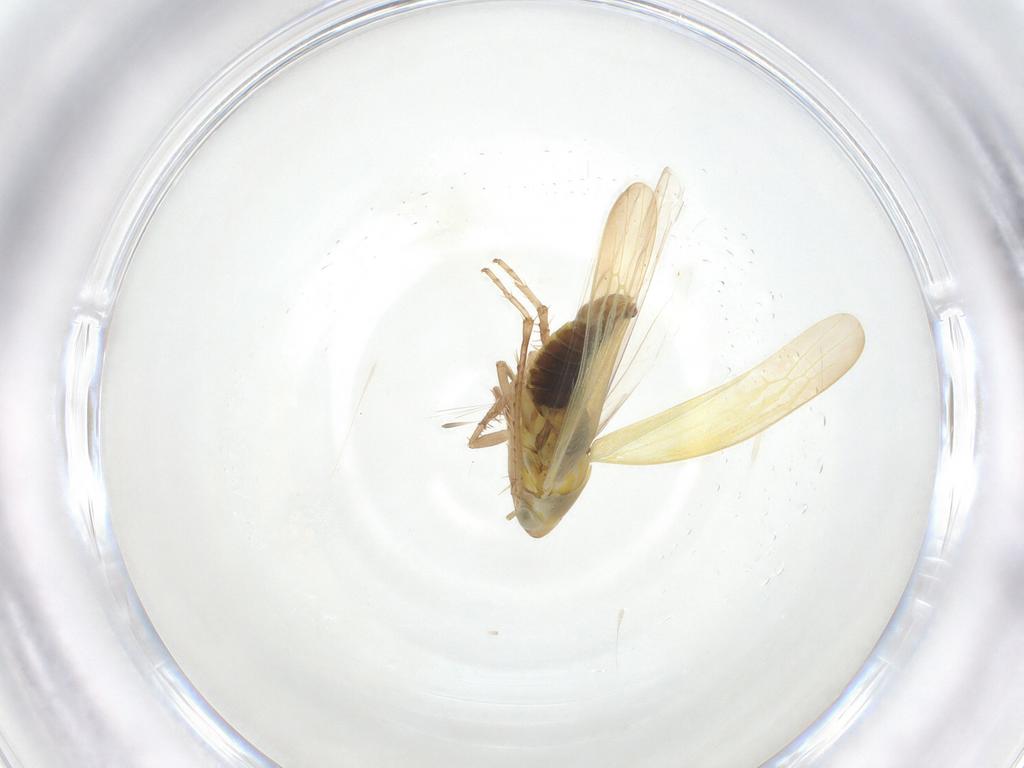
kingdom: Animalia
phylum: Arthropoda
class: Insecta
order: Hemiptera
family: Cicadellidae
